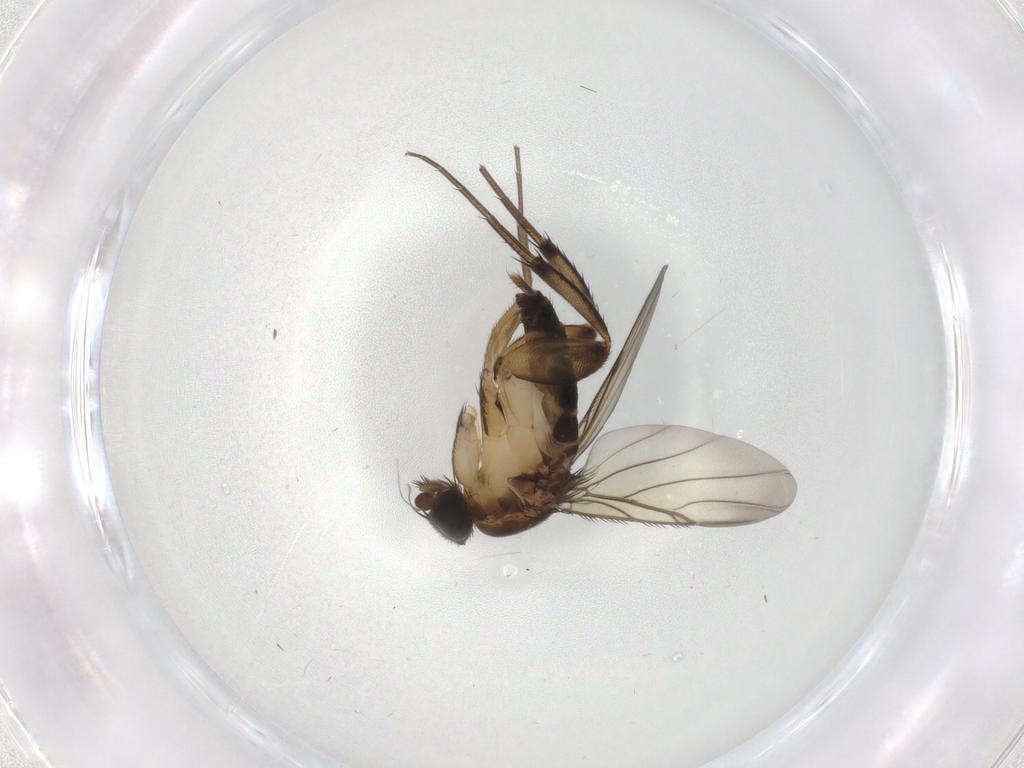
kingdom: Animalia
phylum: Arthropoda
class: Insecta
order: Diptera
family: Phoridae
